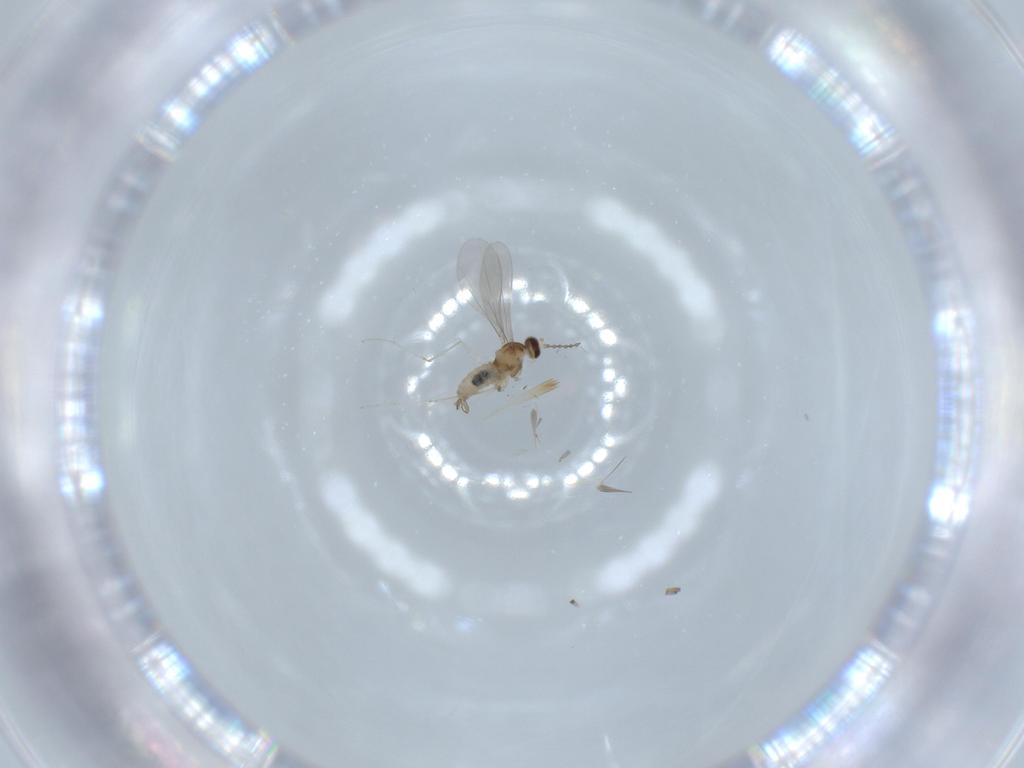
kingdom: Animalia
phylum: Arthropoda
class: Insecta
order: Diptera
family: Cecidomyiidae
